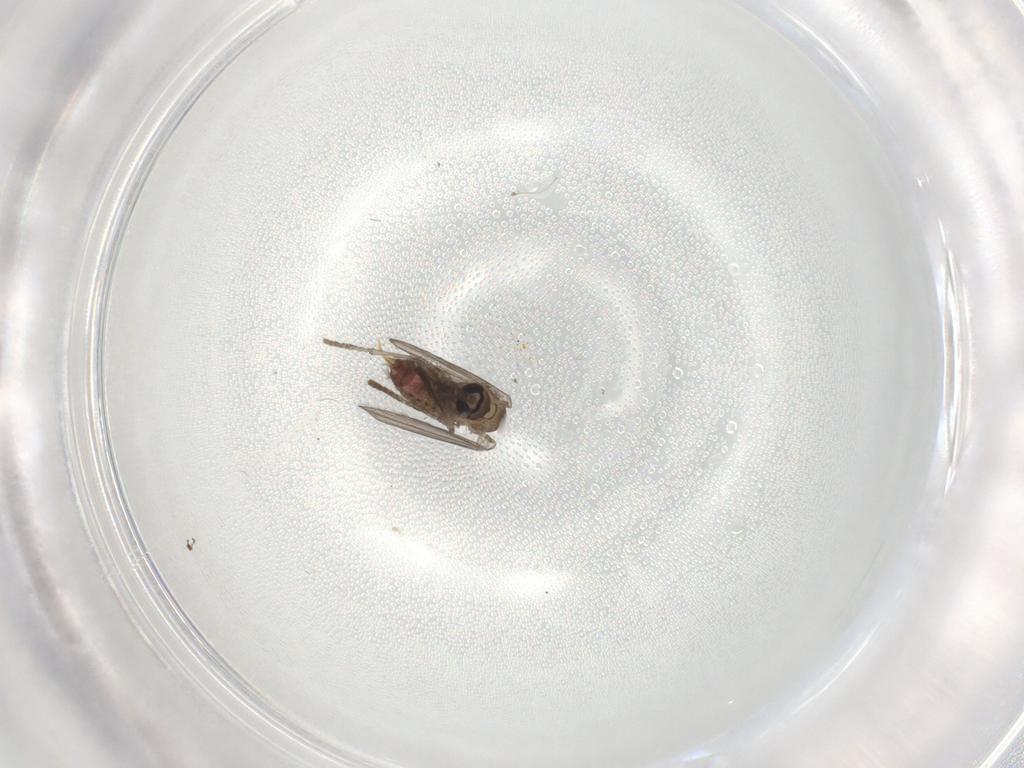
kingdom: Animalia
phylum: Arthropoda
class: Insecta
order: Diptera
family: Psychodidae
